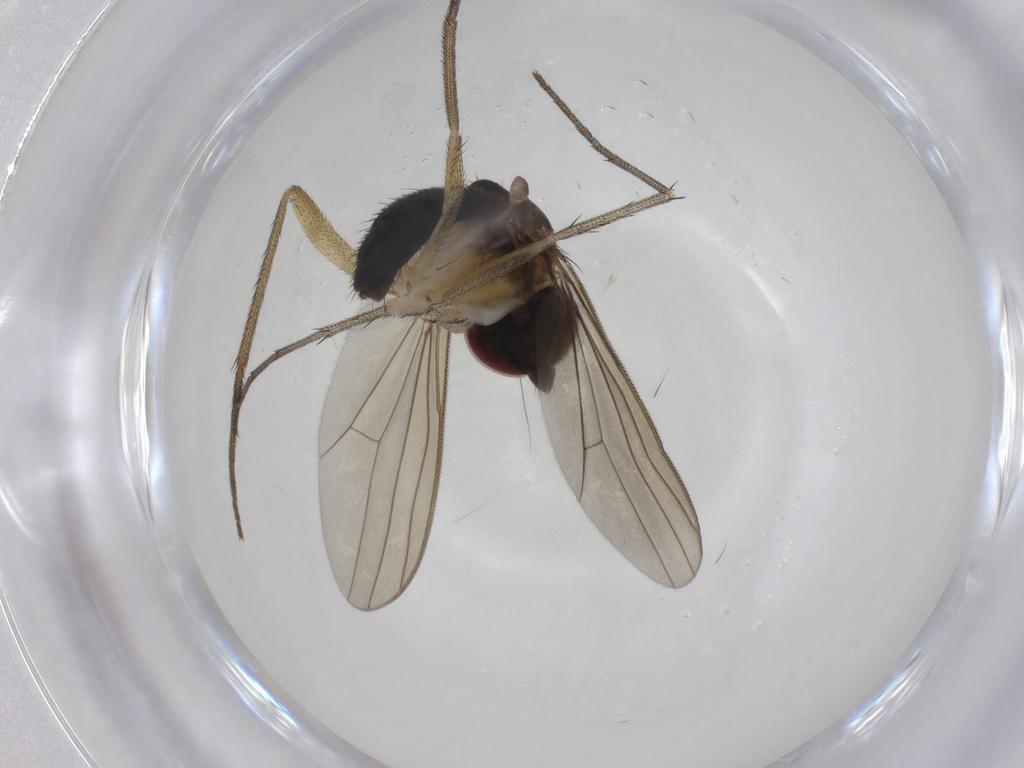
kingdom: Animalia
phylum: Arthropoda
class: Insecta
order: Diptera
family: Dolichopodidae
